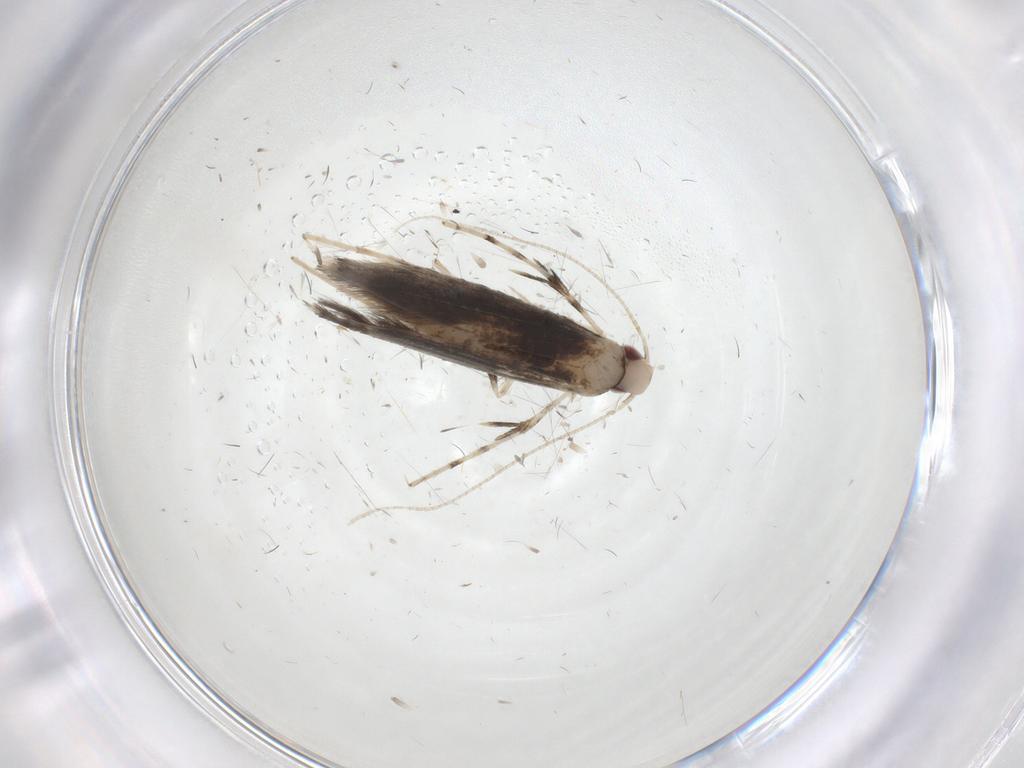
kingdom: Animalia
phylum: Arthropoda
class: Insecta
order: Lepidoptera
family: Gracillariidae
